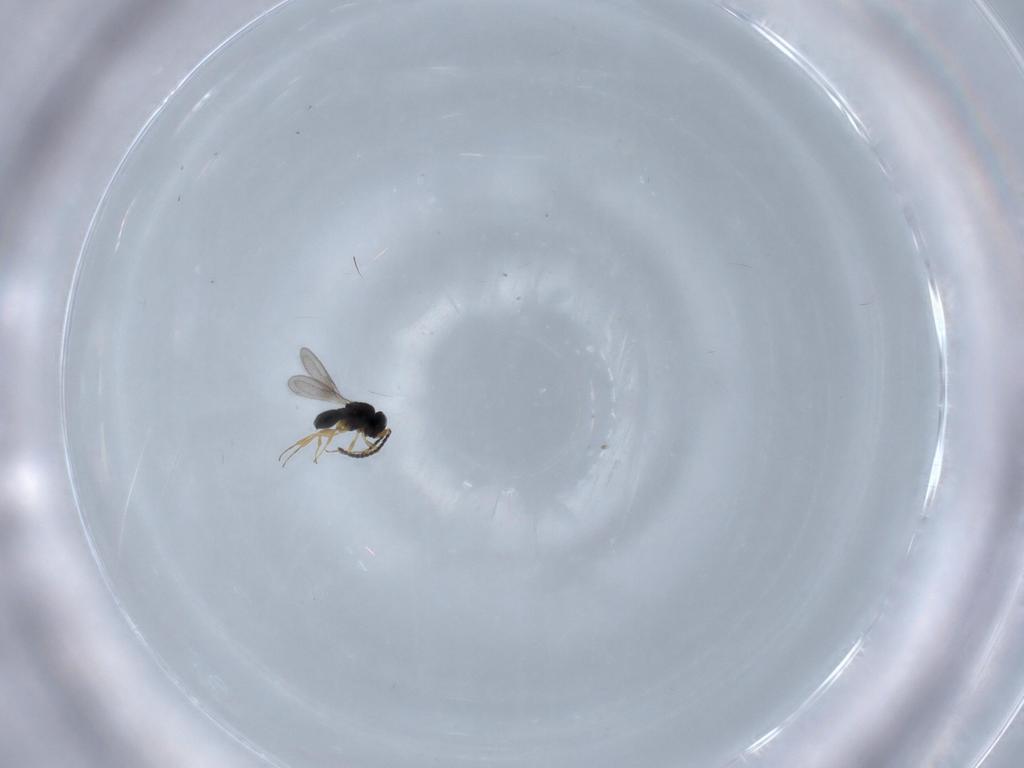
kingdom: Animalia
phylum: Arthropoda
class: Insecta
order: Hymenoptera
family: Scelionidae
